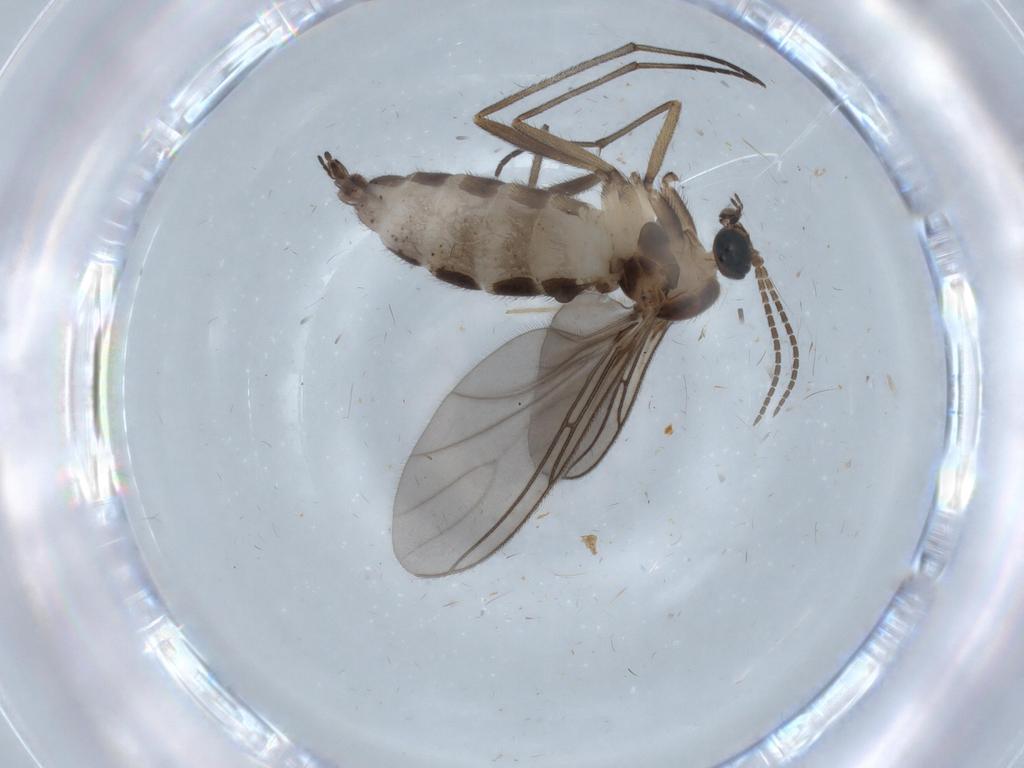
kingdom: Animalia
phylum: Arthropoda
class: Insecta
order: Diptera
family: Sciaridae
